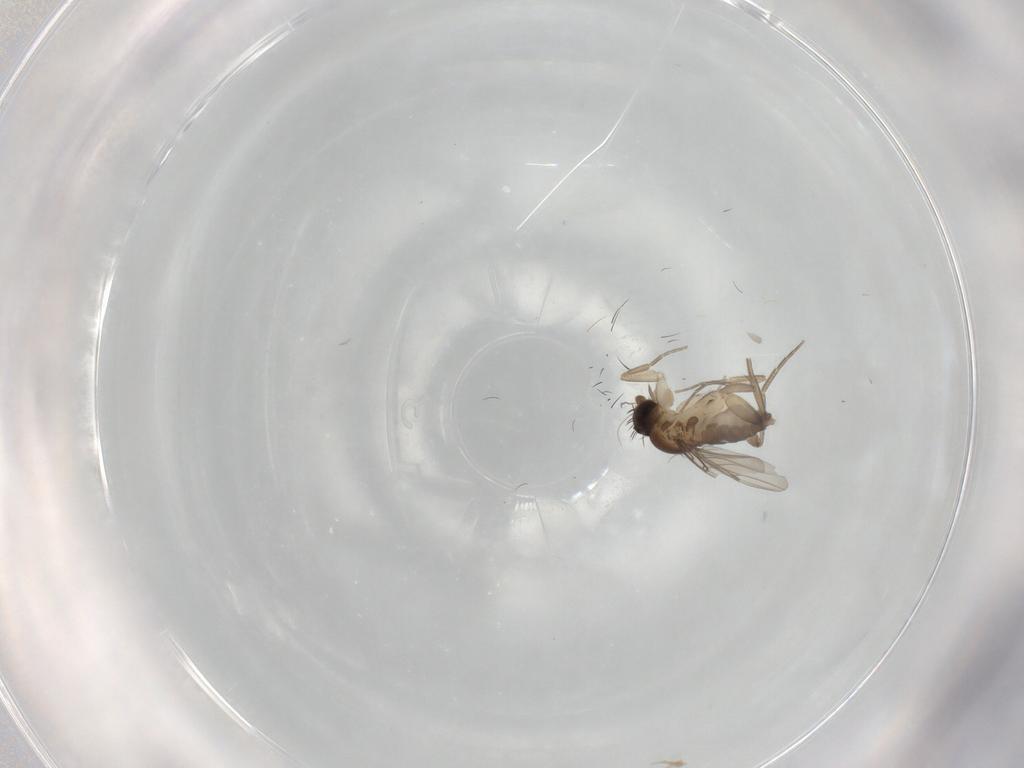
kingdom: Animalia
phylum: Arthropoda
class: Insecta
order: Diptera
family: Phoridae
